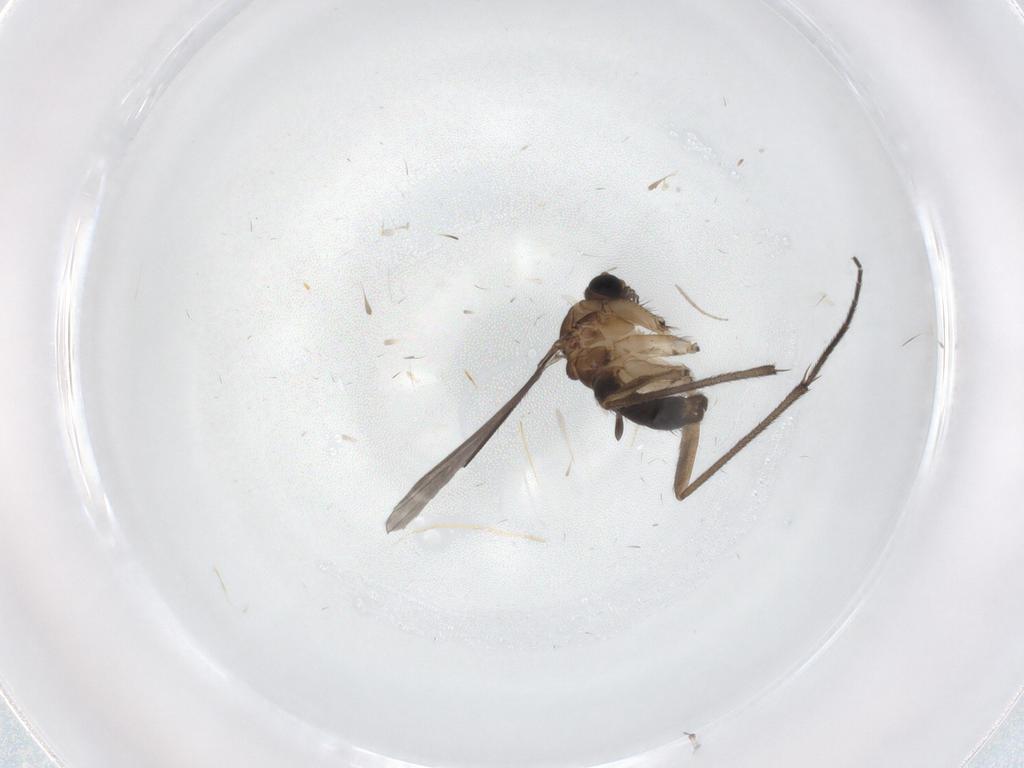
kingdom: Animalia
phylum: Arthropoda
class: Insecta
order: Diptera
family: Sciaridae
